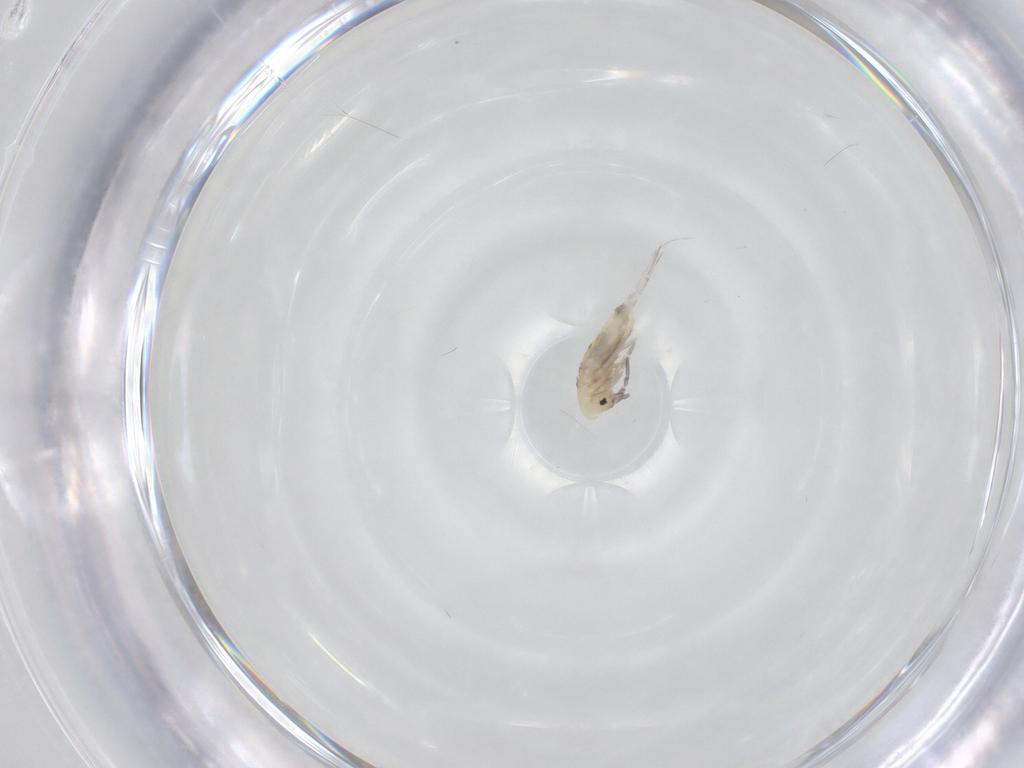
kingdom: Animalia
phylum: Arthropoda
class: Collembola
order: Entomobryomorpha
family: Entomobryidae
